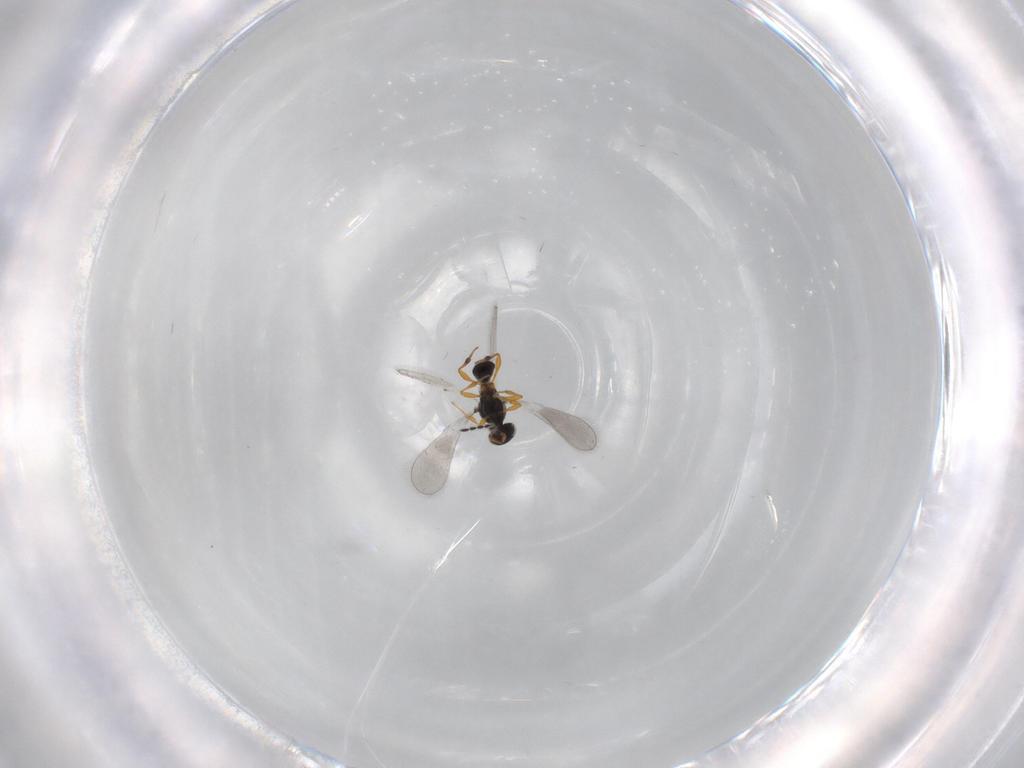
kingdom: Animalia
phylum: Arthropoda
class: Insecta
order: Hymenoptera
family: Platygastridae
